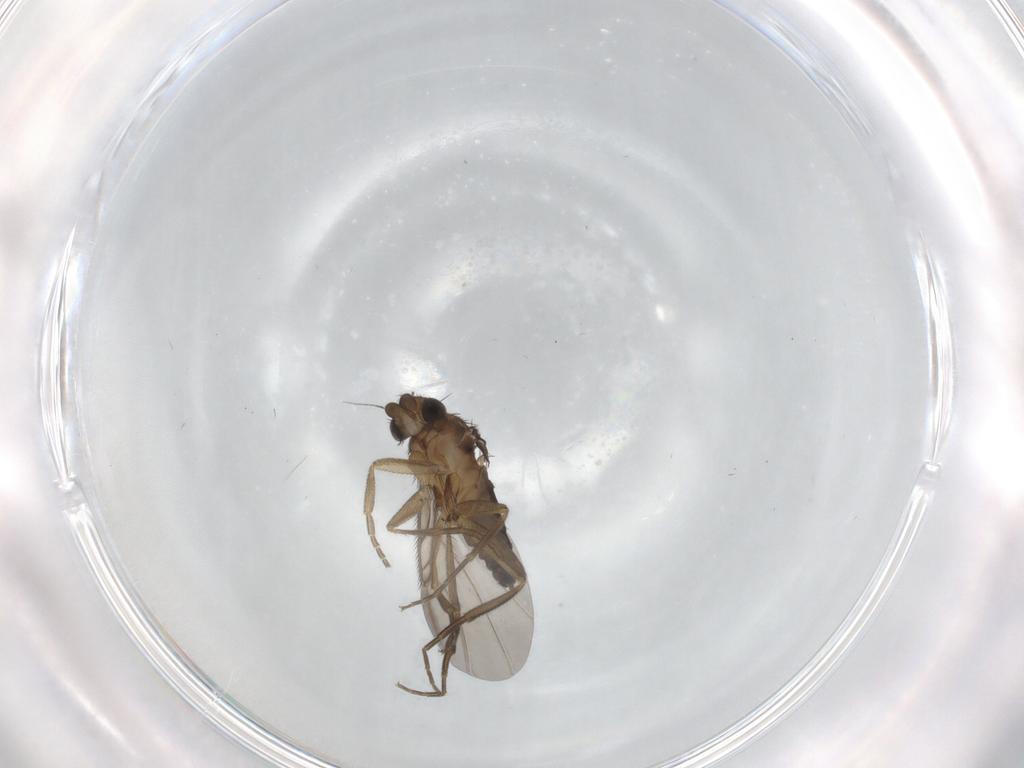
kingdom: Animalia
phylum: Arthropoda
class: Insecta
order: Diptera
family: Phoridae
